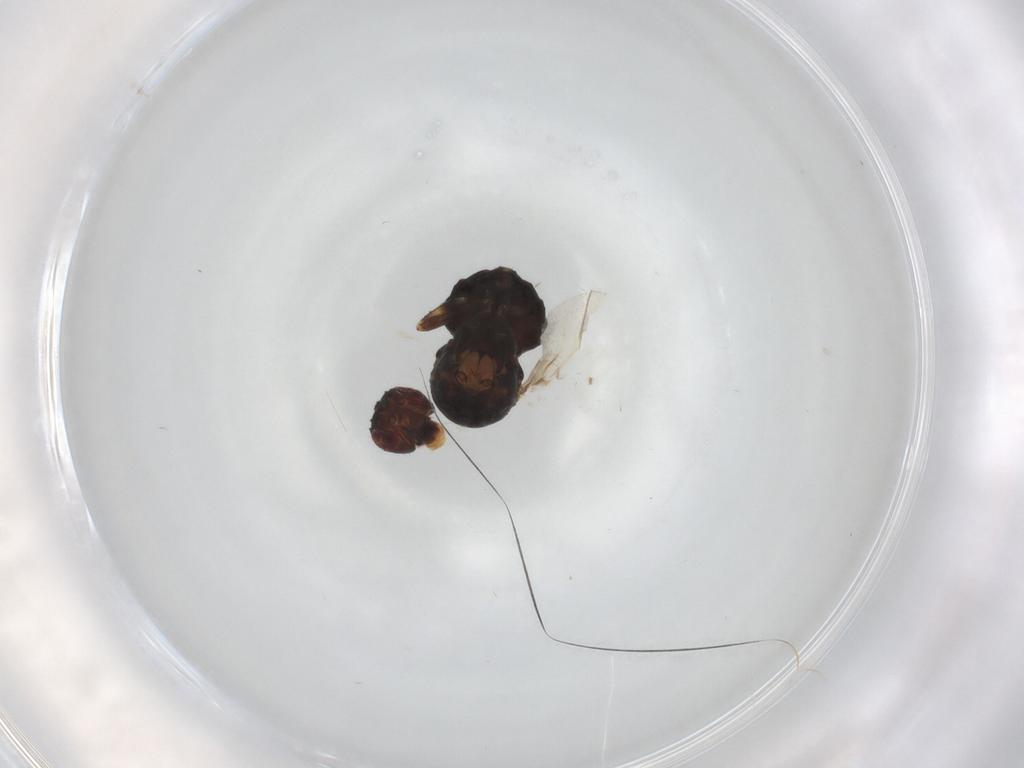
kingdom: Animalia
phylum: Arthropoda
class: Insecta
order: Diptera
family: Sphaeroceridae
